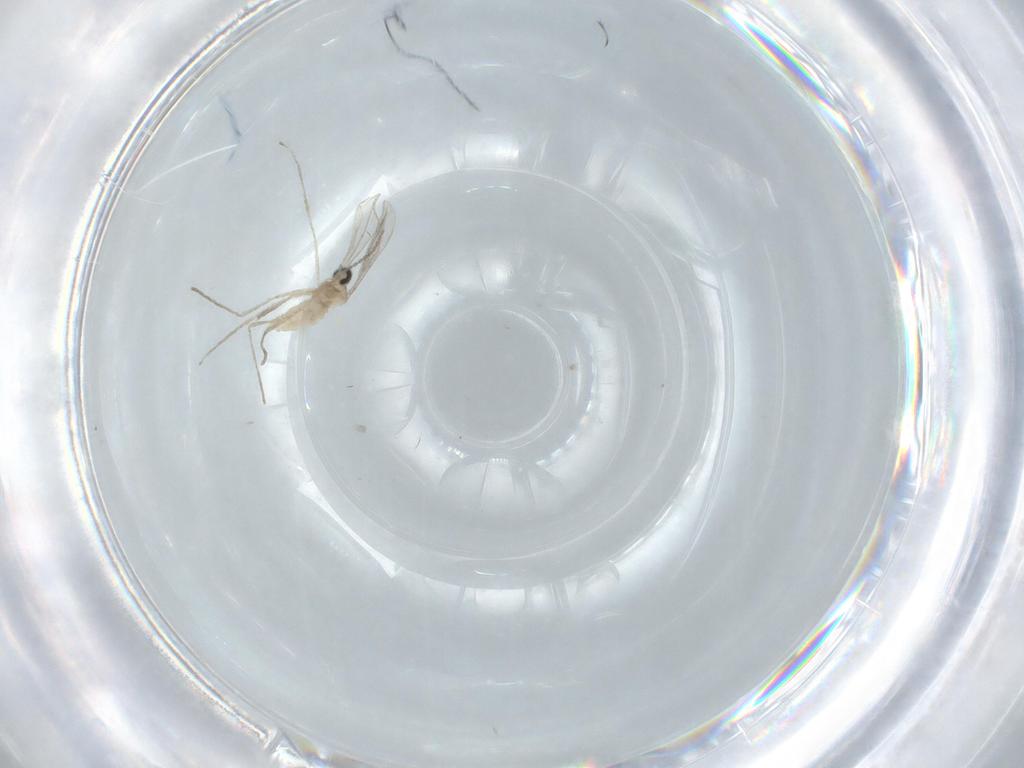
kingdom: Animalia
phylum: Arthropoda
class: Insecta
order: Diptera
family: Cecidomyiidae
